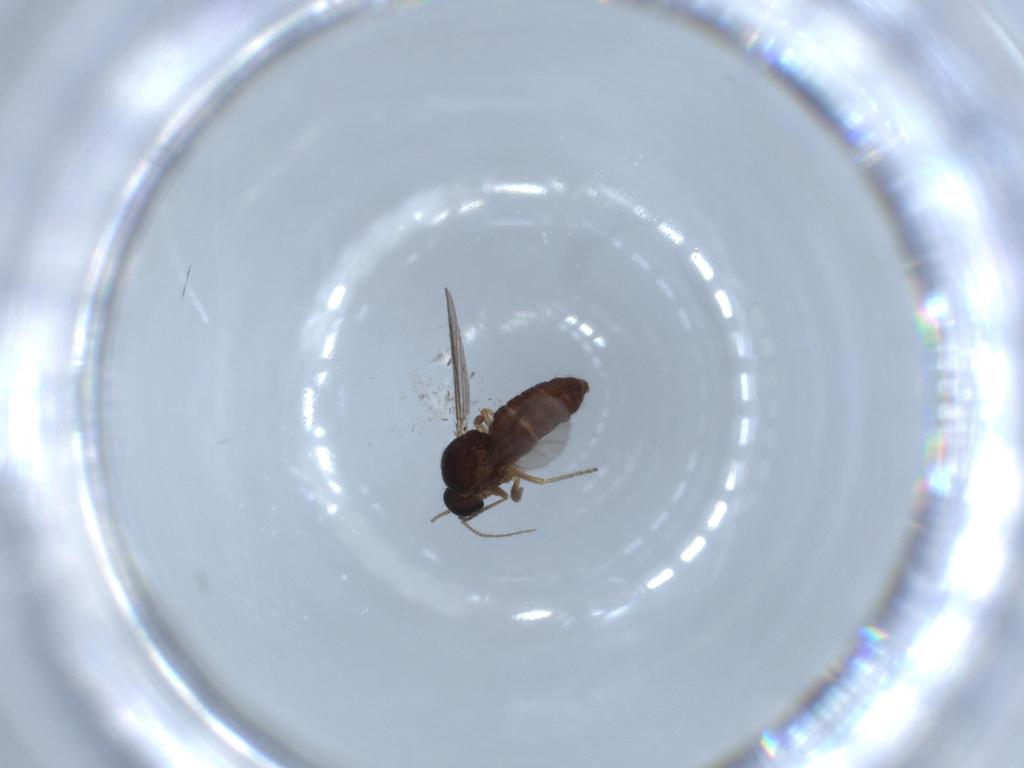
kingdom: Animalia
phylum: Arthropoda
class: Insecta
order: Diptera
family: Ceratopogonidae
